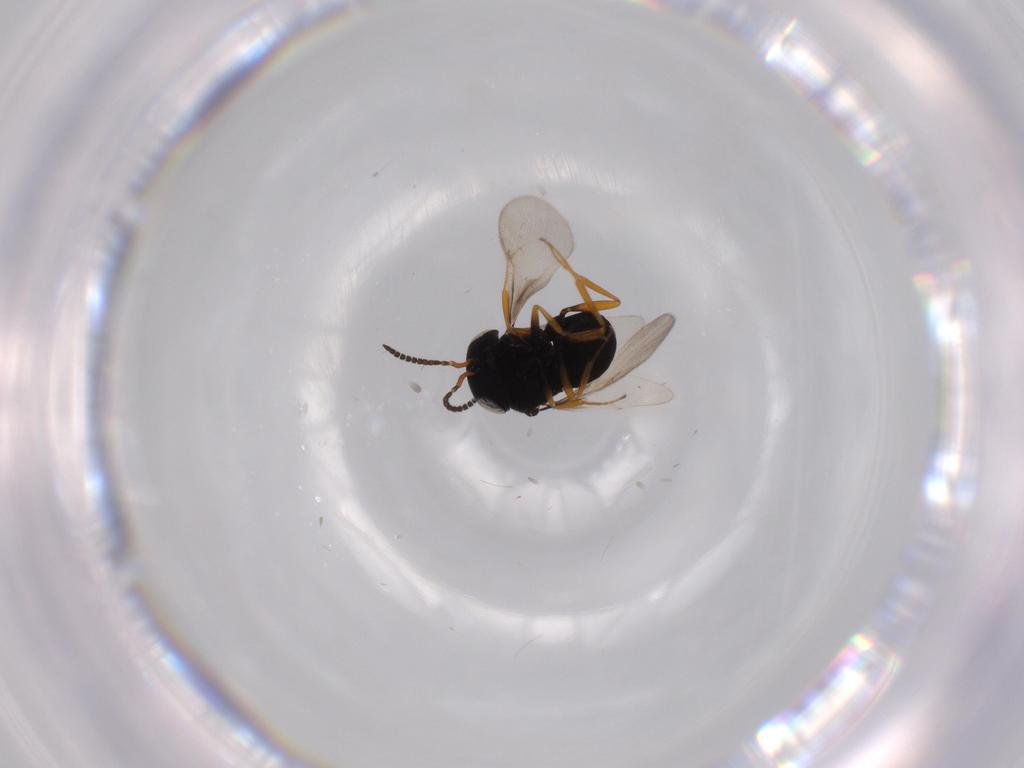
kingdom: Animalia
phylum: Arthropoda
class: Insecta
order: Hymenoptera
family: Scelionidae
